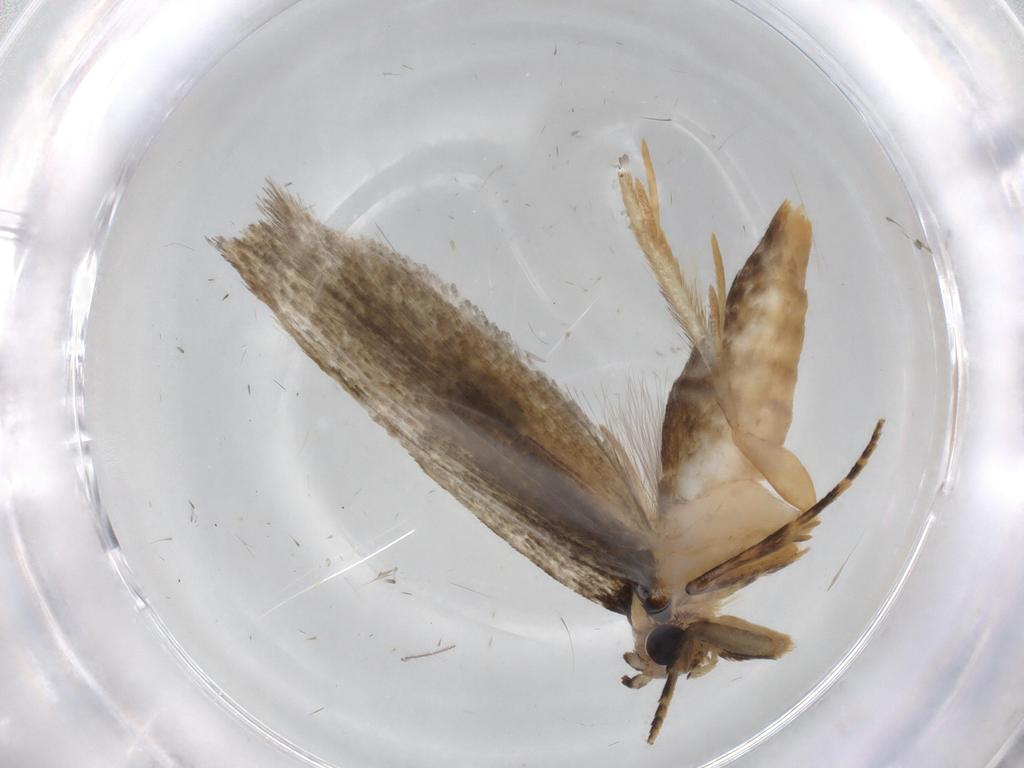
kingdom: Animalia
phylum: Arthropoda
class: Insecta
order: Lepidoptera
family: Tineidae
